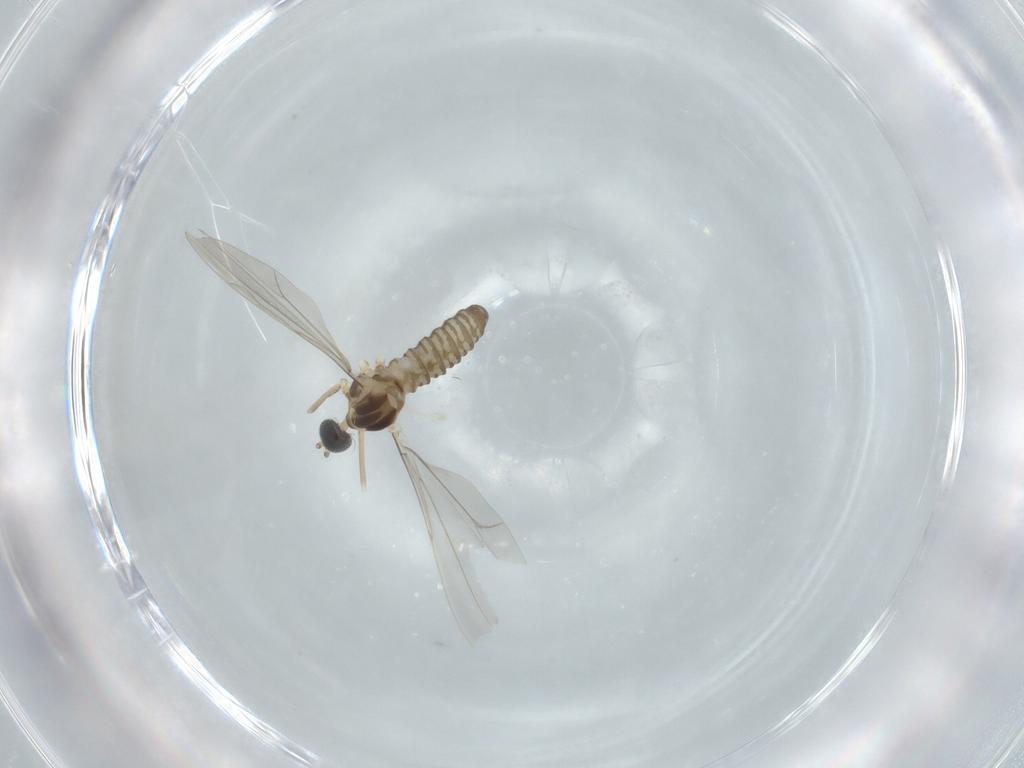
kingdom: Animalia
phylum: Arthropoda
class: Insecta
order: Diptera
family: Cecidomyiidae
